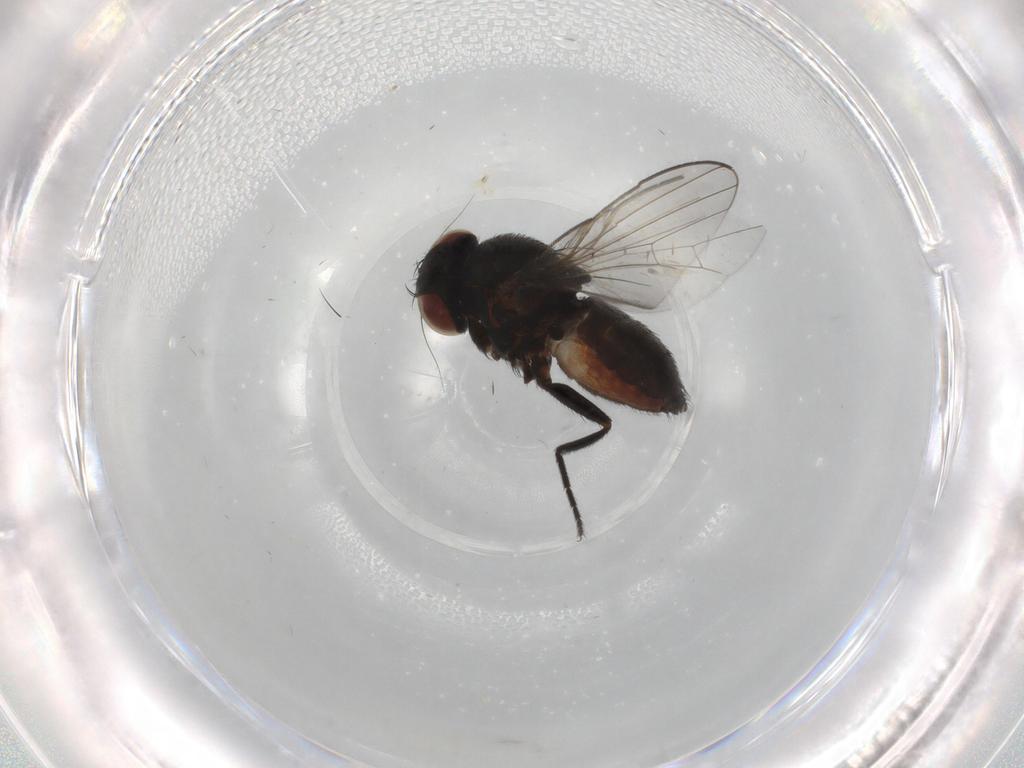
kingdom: Animalia
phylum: Arthropoda
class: Insecta
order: Diptera
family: Milichiidae
